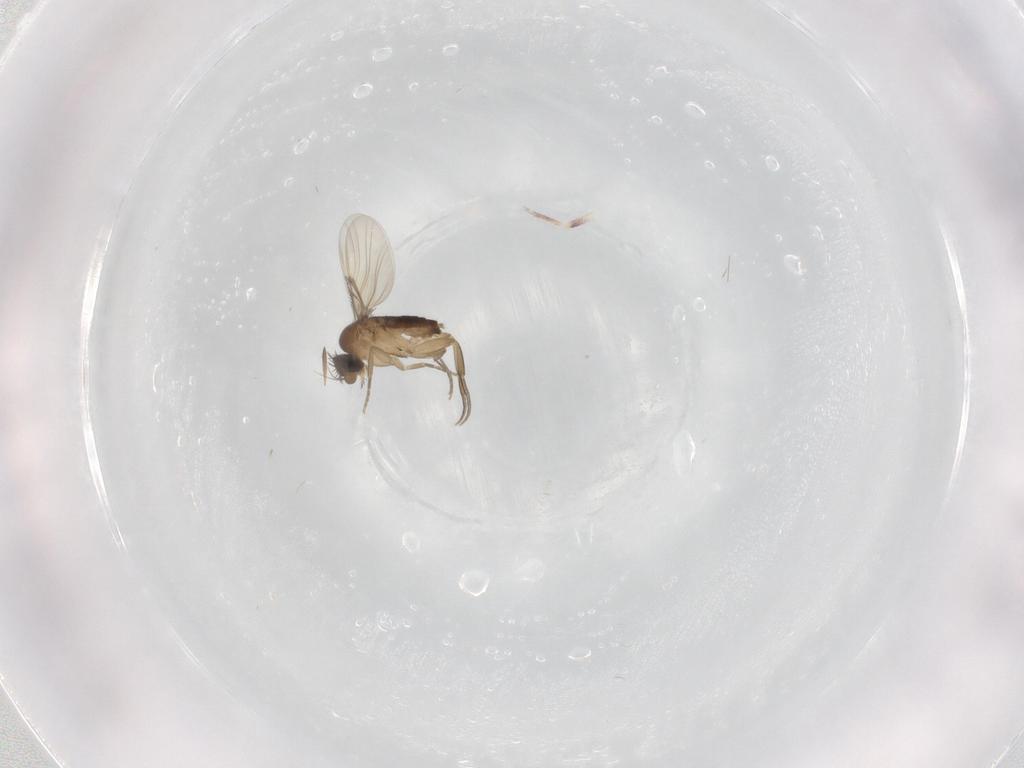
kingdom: Animalia
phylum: Arthropoda
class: Insecta
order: Diptera
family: Phoridae
